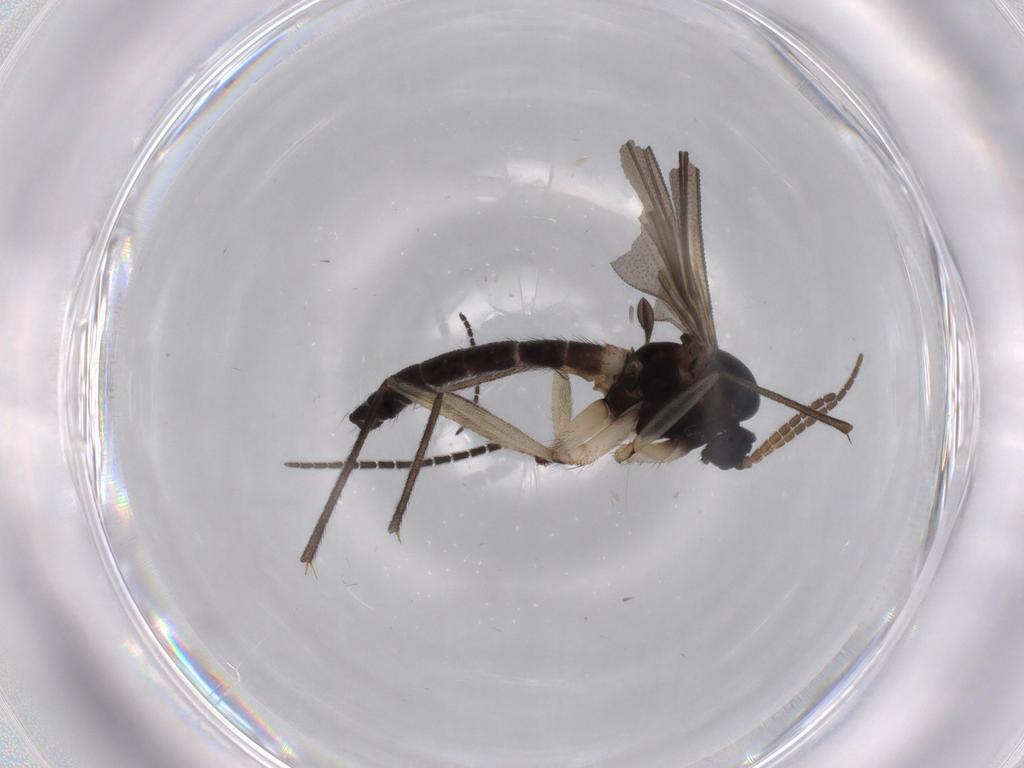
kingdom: Animalia
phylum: Arthropoda
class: Insecta
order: Diptera
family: Sciaridae
